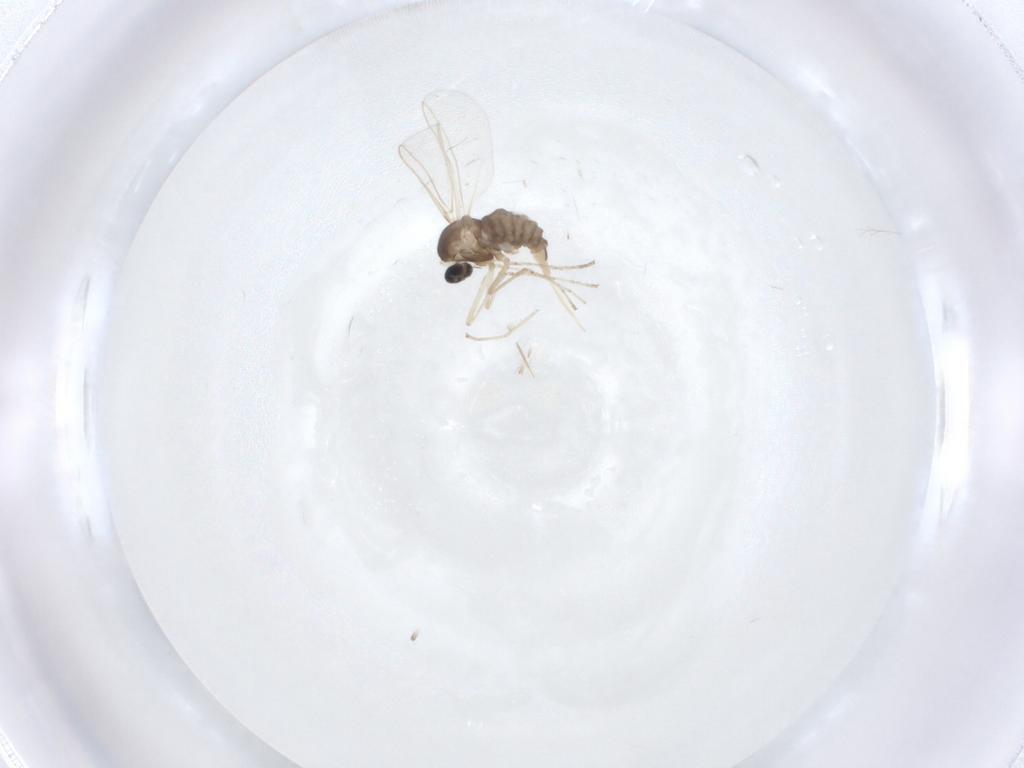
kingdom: Animalia
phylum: Arthropoda
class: Insecta
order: Diptera
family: Cecidomyiidae
